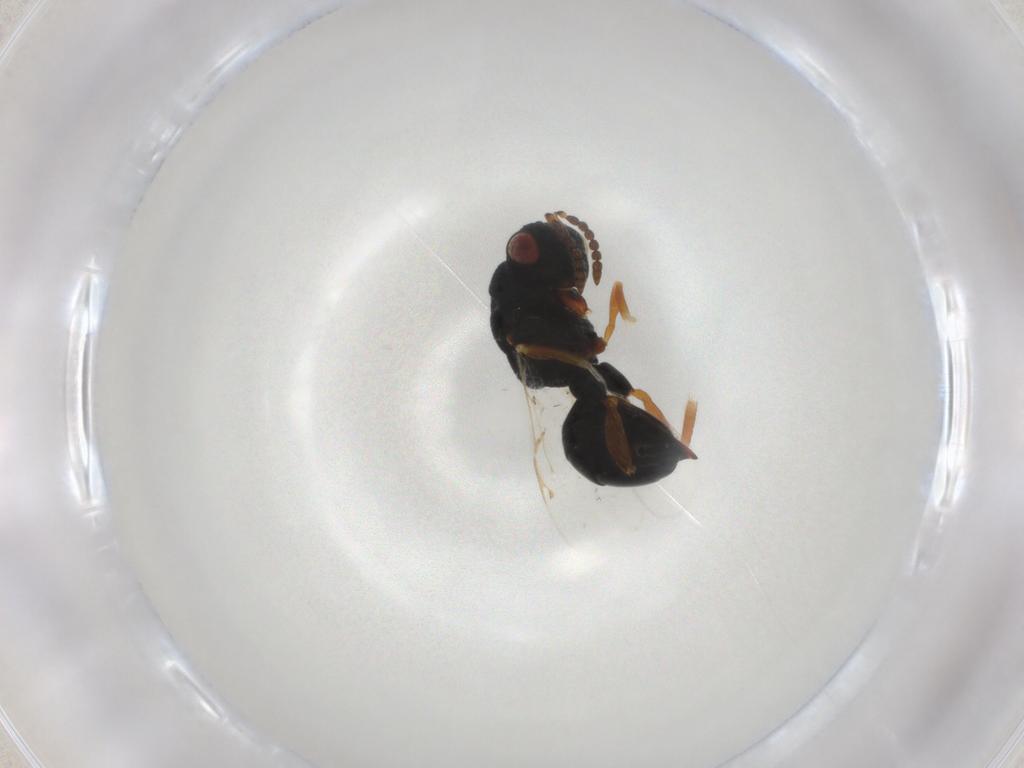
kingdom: Animalia
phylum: Arthropoda
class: Insecta
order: Hymenoptera
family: Eurytomidae
